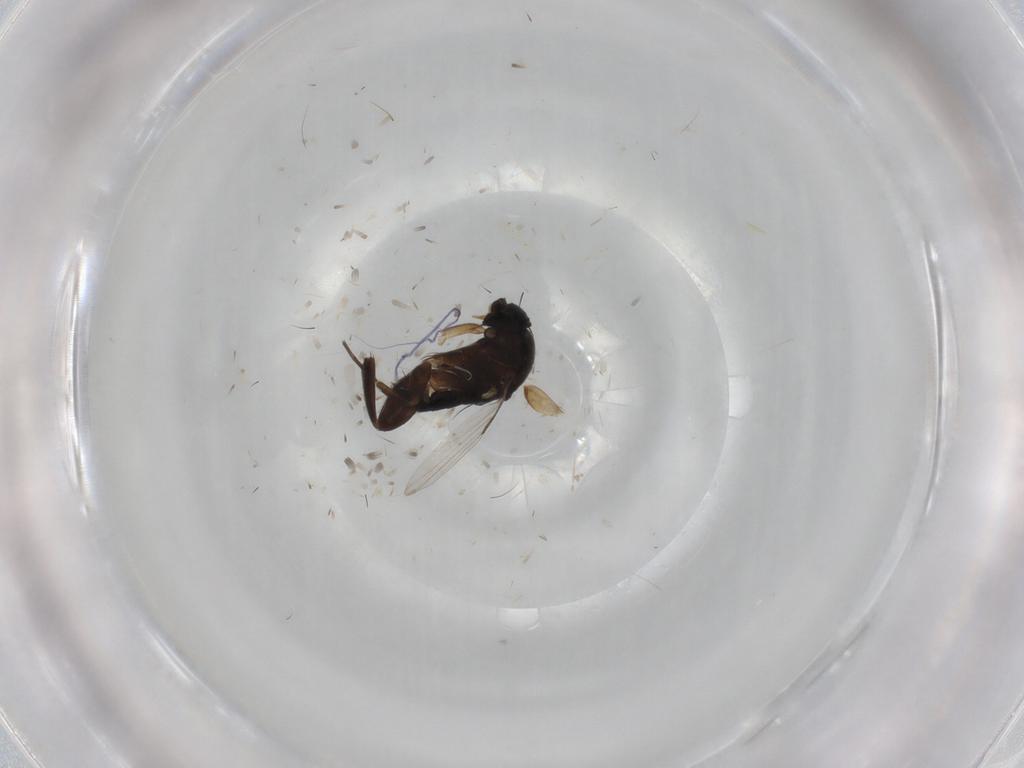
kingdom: Animalia
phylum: Arthropoda
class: Insecta
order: Diptera
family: Phoridae
